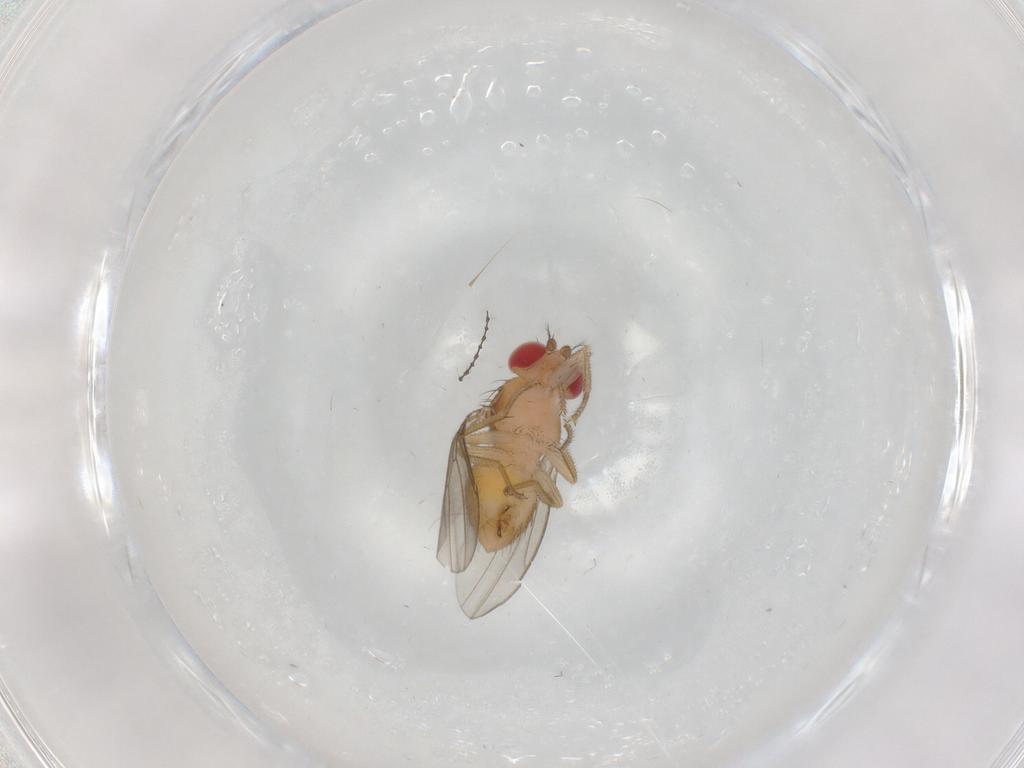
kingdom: Animalia
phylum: Arthropoda
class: Insecta
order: Diptera
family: Drosophilidae
